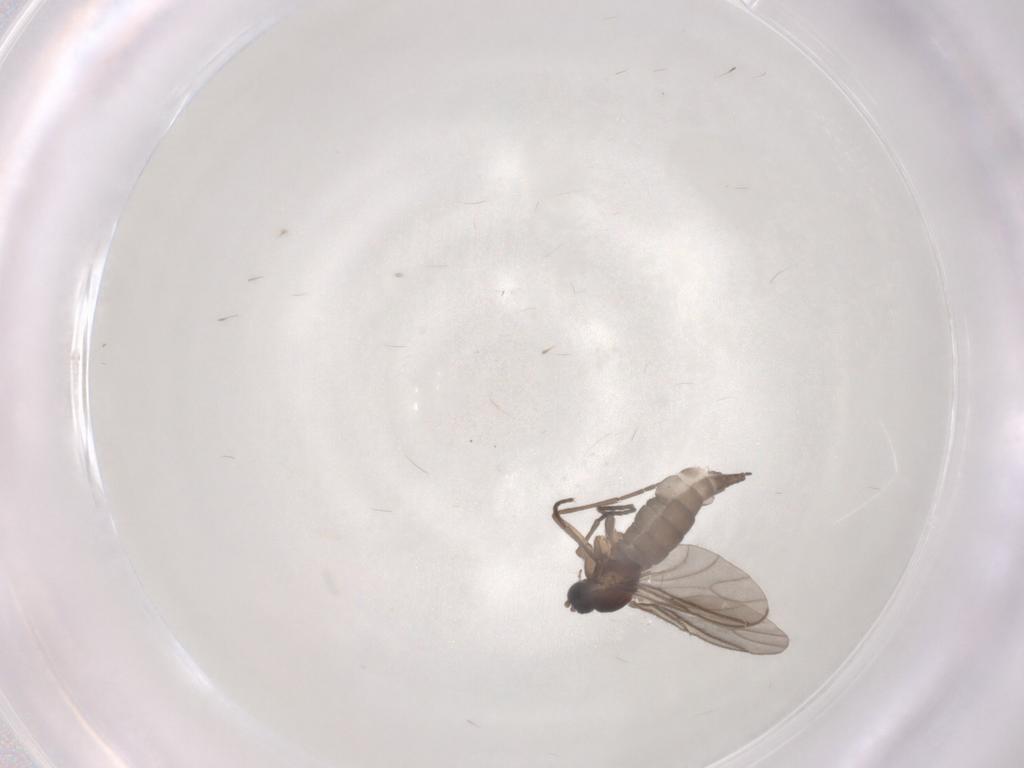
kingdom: Animalia
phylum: Arthropoda
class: Insecta
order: Diptera
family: Sciaridae
